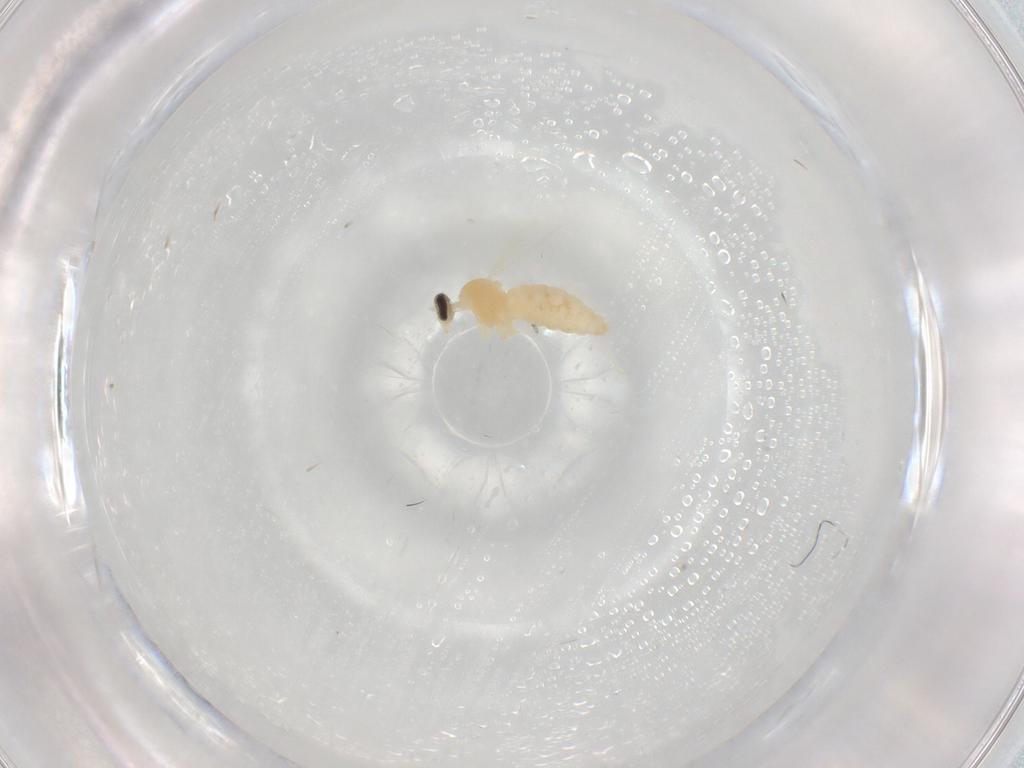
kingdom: Animalia
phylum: Arthropoda
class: Insecta
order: Diptera
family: Cecidomyiidae
